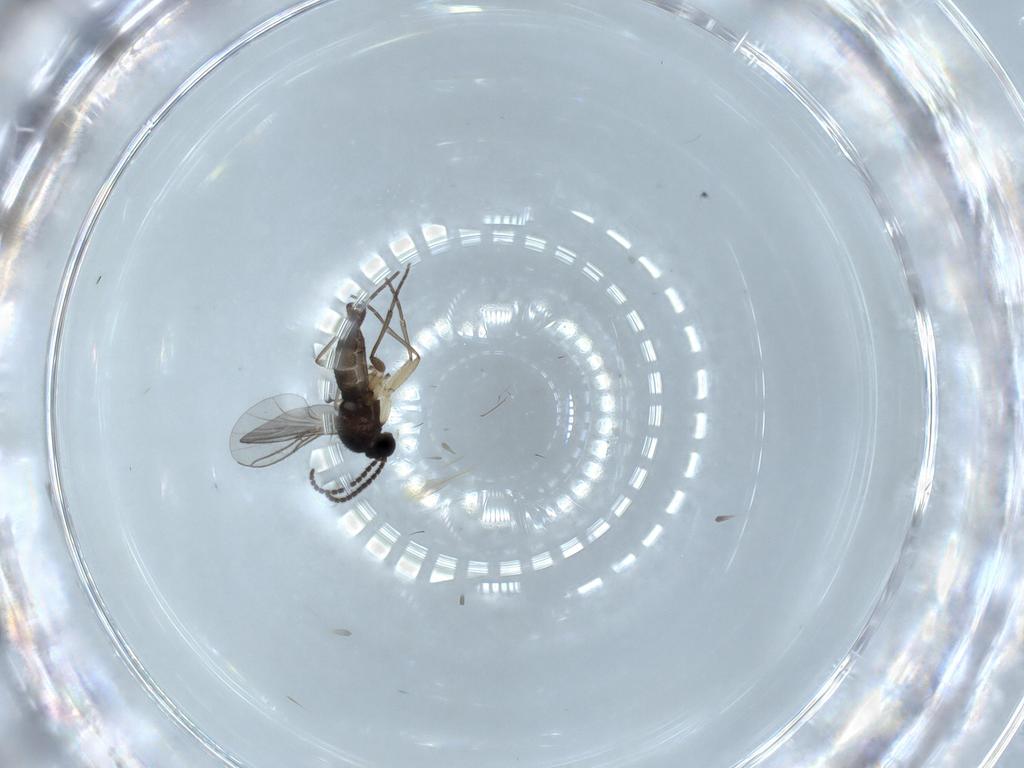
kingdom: Animalia
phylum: Arthropoda
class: Insecta
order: Diptera
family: Sciaridae
